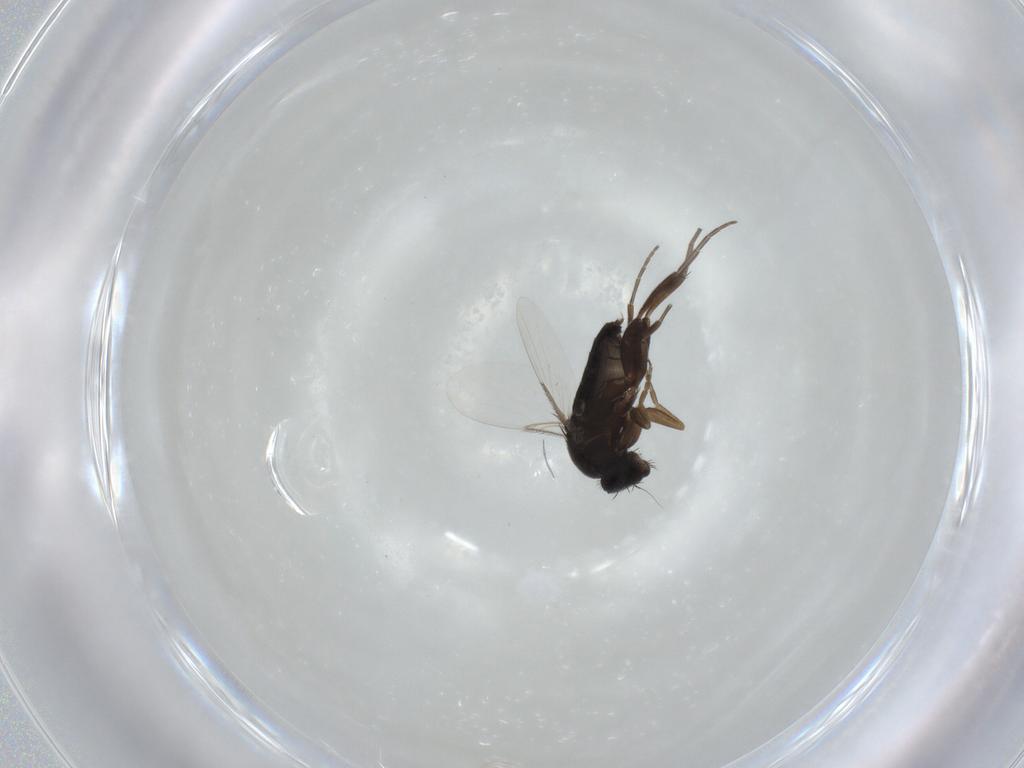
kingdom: Animalia
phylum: Arthropoda
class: Insecta
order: Diptera
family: Phoridae
